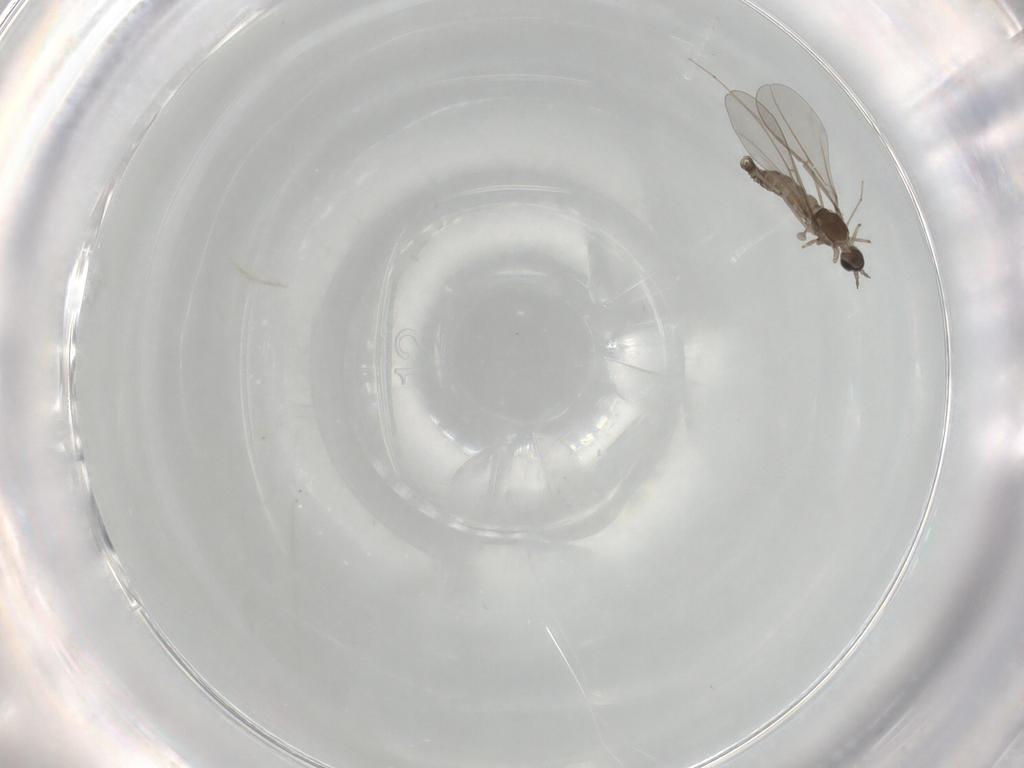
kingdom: Animalia
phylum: Arthropoda
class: Insecta
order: Diptera
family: Cecidomyiidae
